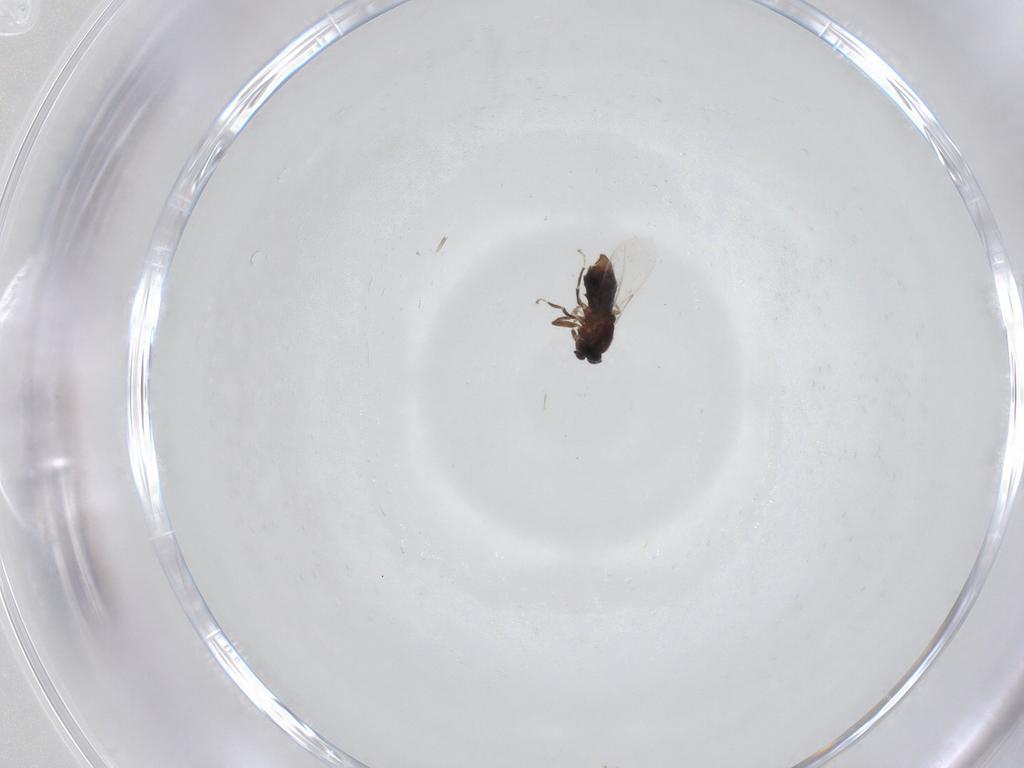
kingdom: Animalia
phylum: Arthropoda
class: Insecta
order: Diptera
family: Scatopsidae
